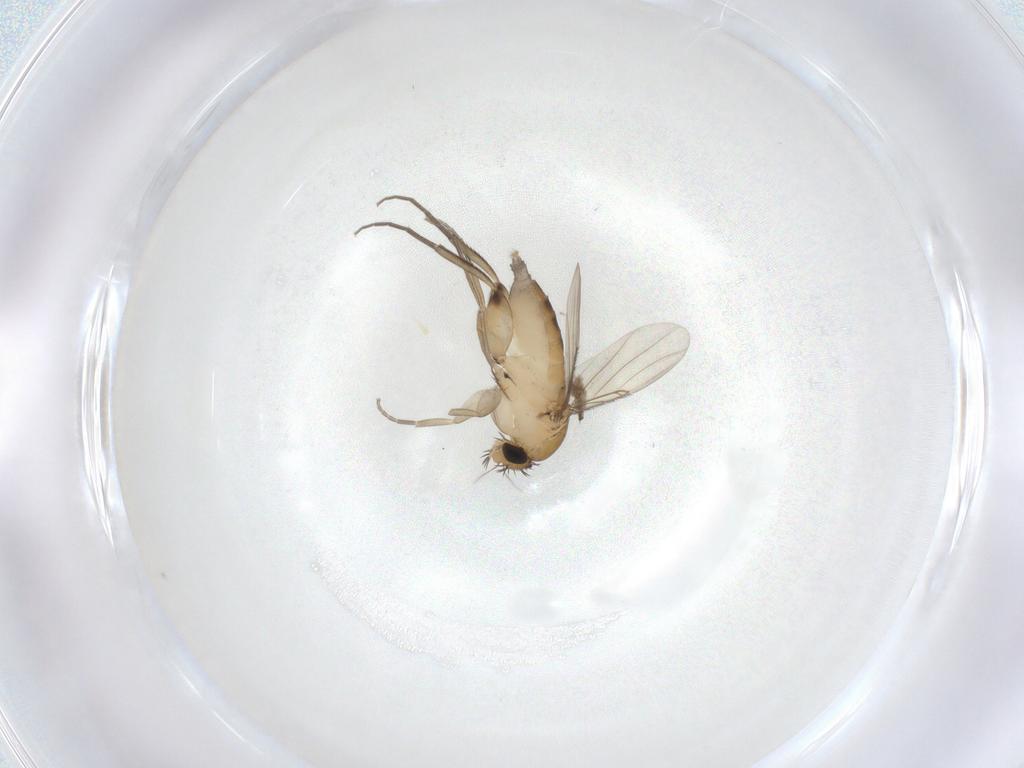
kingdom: Animalia
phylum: Arthropoda
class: Insecta
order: Diptera
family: Phoridae
